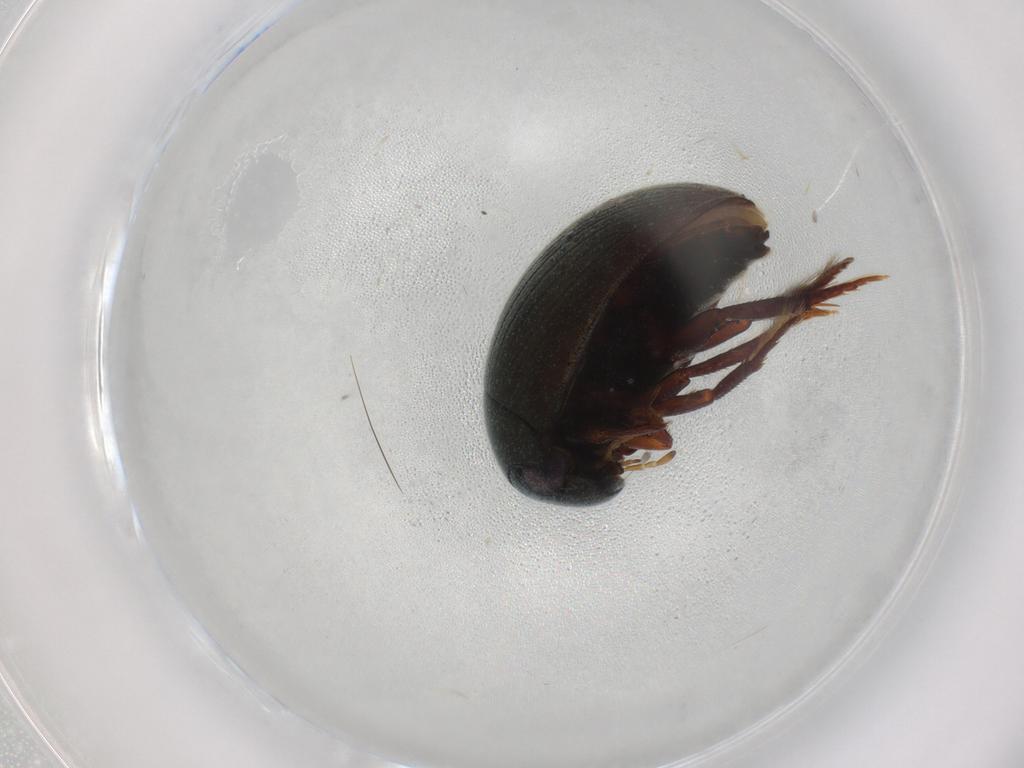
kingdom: Animalia
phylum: Arthropoda
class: Insecta
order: Coleoptera
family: Hydrophilidae
